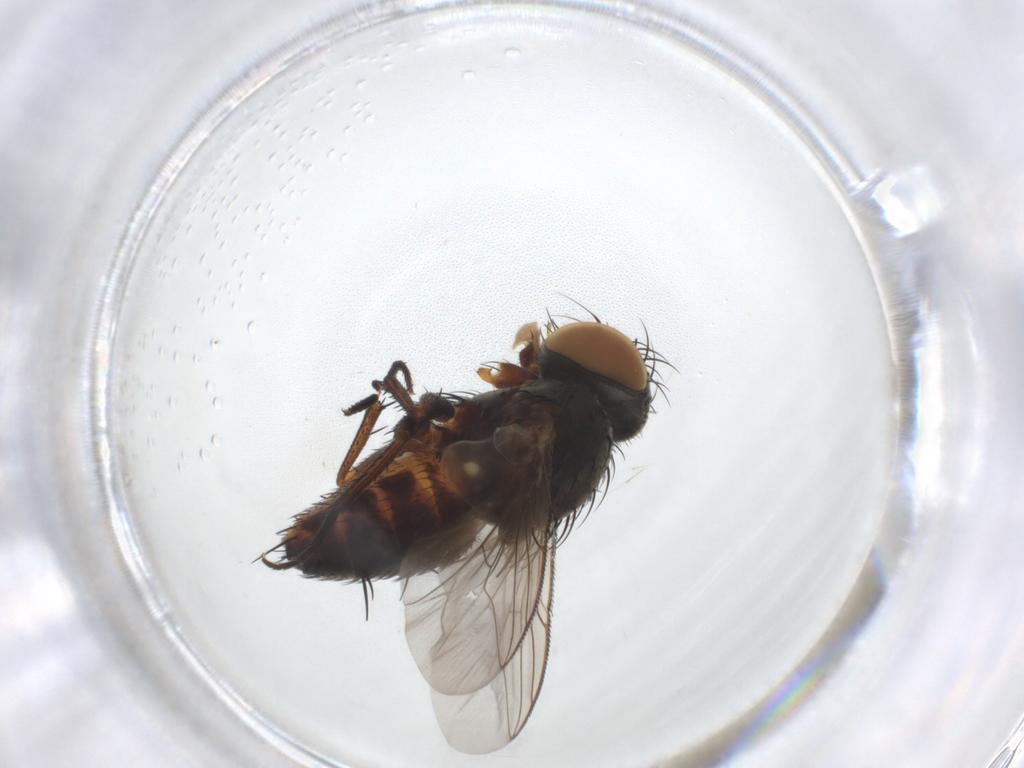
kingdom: Animalia
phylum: Arthropoda
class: Insecta
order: Diptera
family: Sarcophagidae
